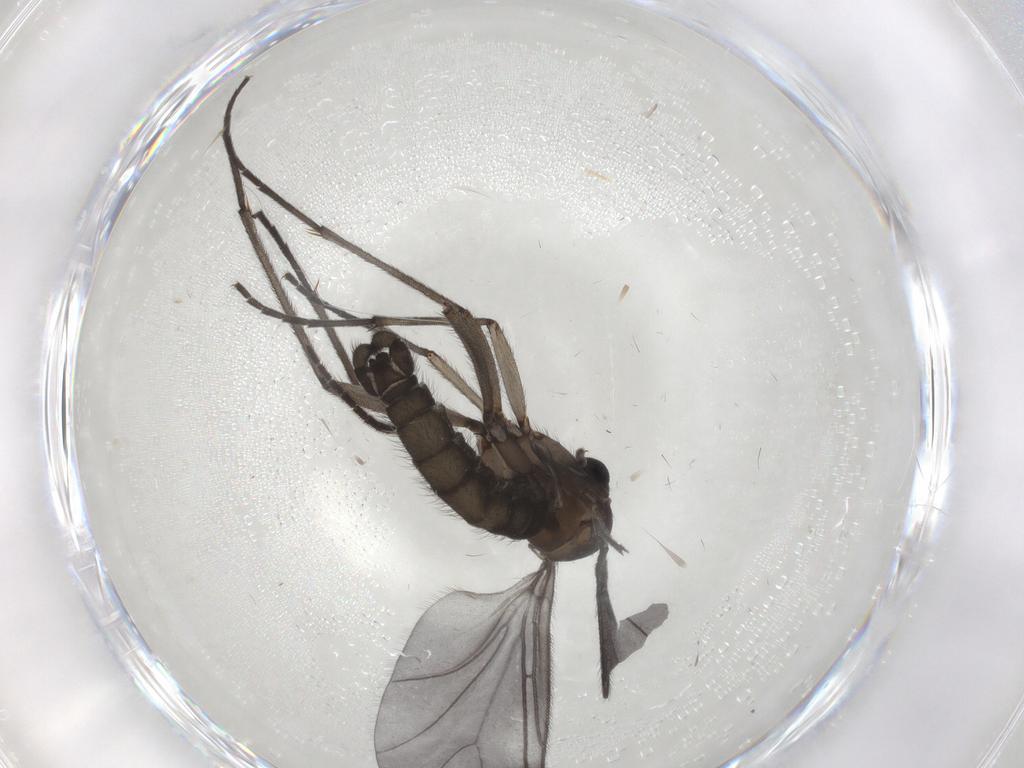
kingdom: Animalia
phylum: Arthropoda
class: Insecta
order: Diptera
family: Sciaridae
